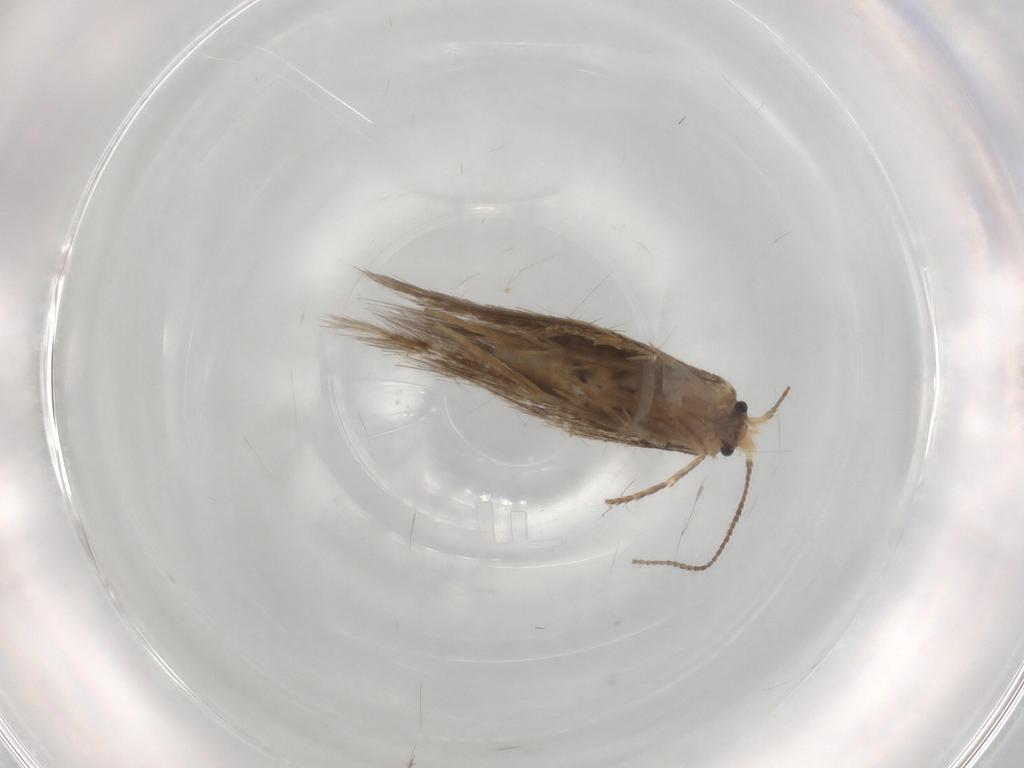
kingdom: Animalia
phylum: Arthropoda
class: Insecta
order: Lepidoptera
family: Nepticulidae
